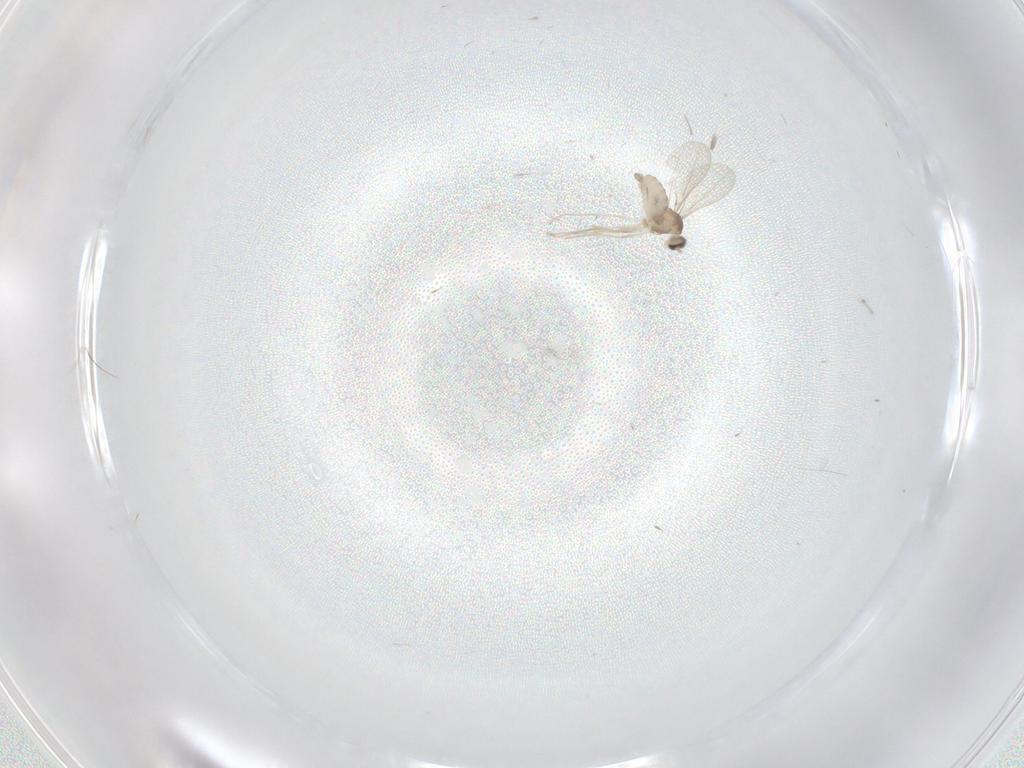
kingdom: Animalia
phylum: Arthropoda
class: Insecta
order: Diptera
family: Cecidomyiidae
